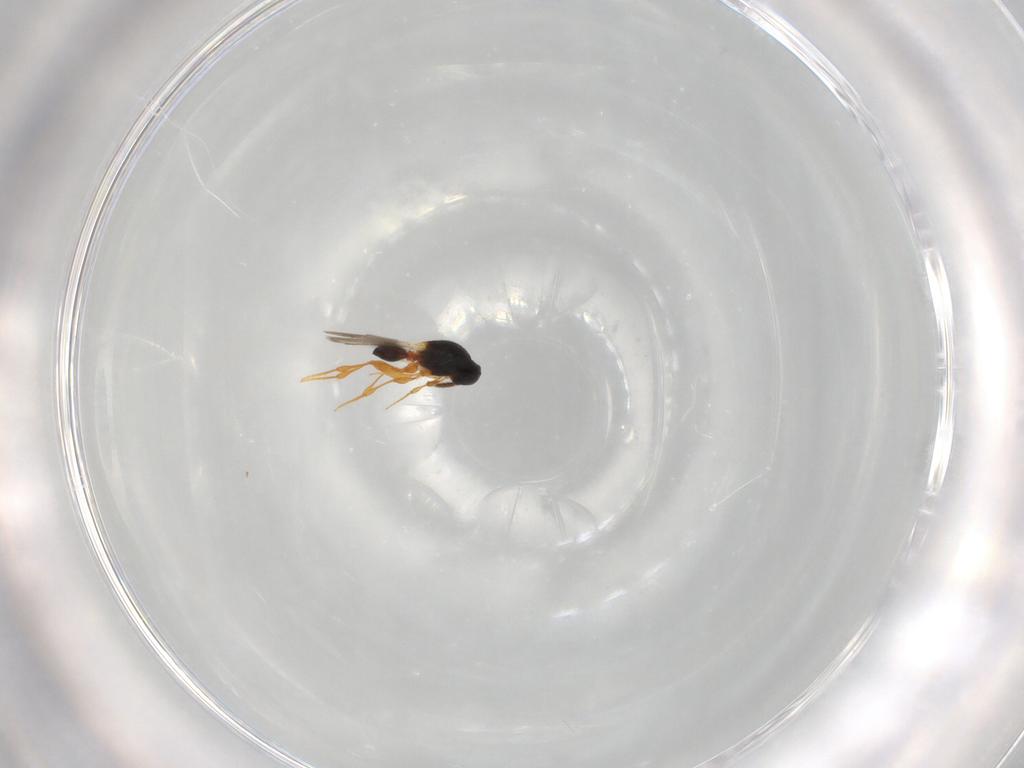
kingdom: Animalia
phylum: Arthropoda
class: Insecta
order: Hymenoptera
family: Platygastridae
